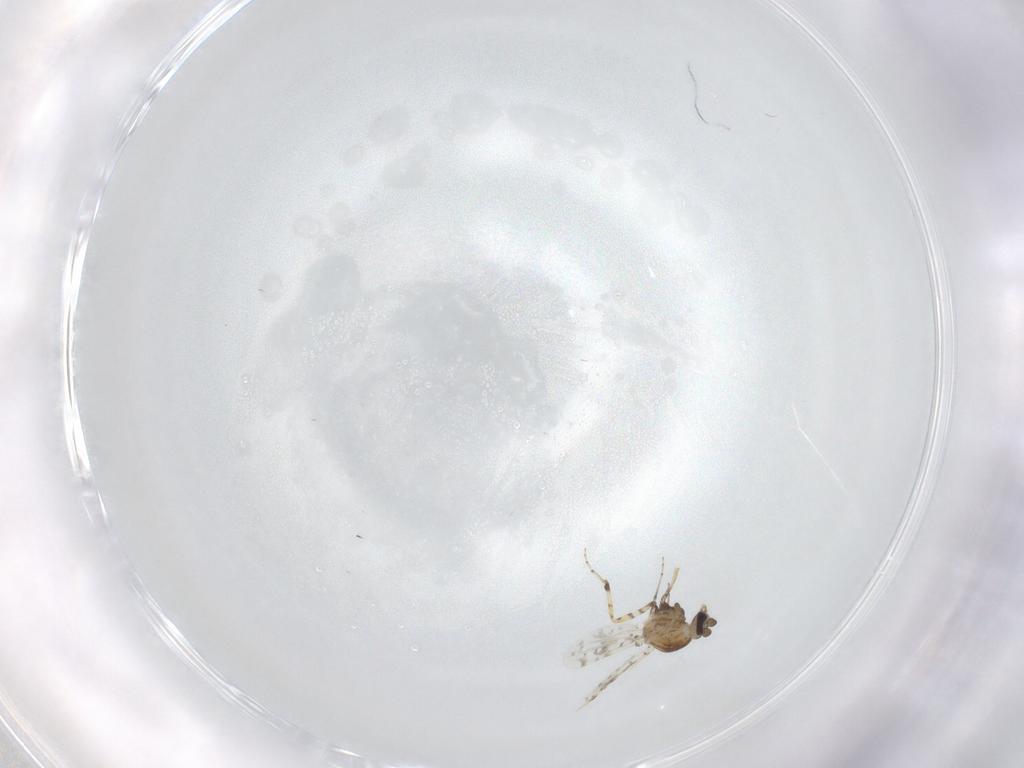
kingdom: Animalia
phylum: Arthropoda
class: Insecta
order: Diptera
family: Ceratopogonidae
